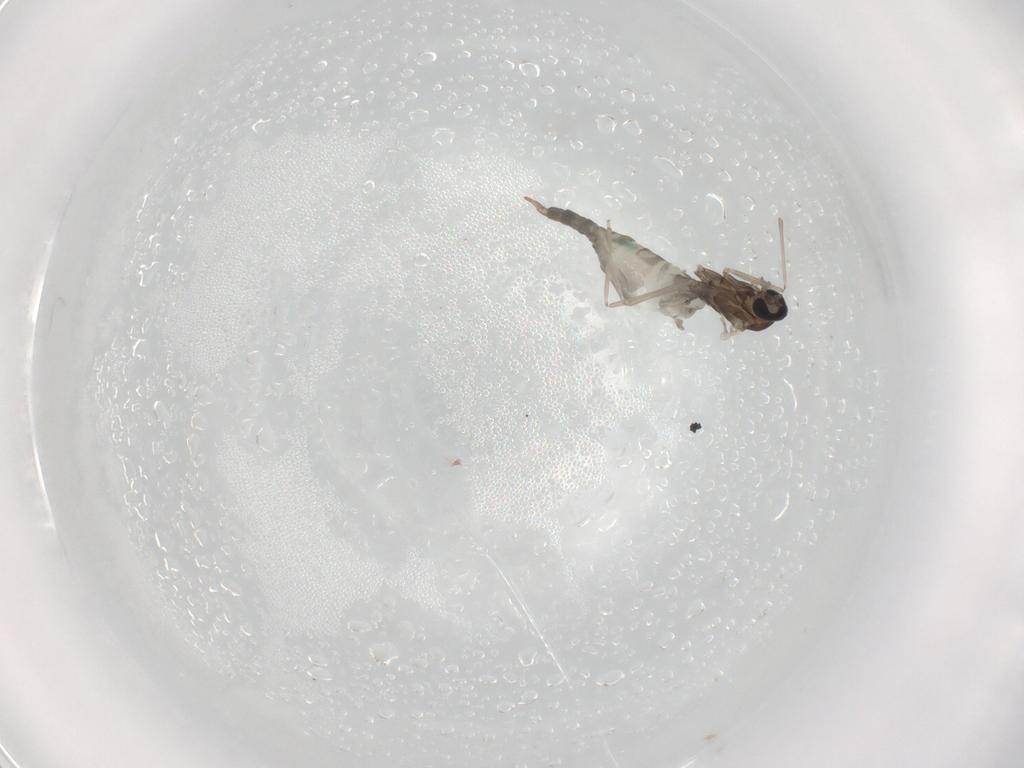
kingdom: Animalia
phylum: Arthropoda
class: Insecta
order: Diptera
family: Cecidomyiidae
